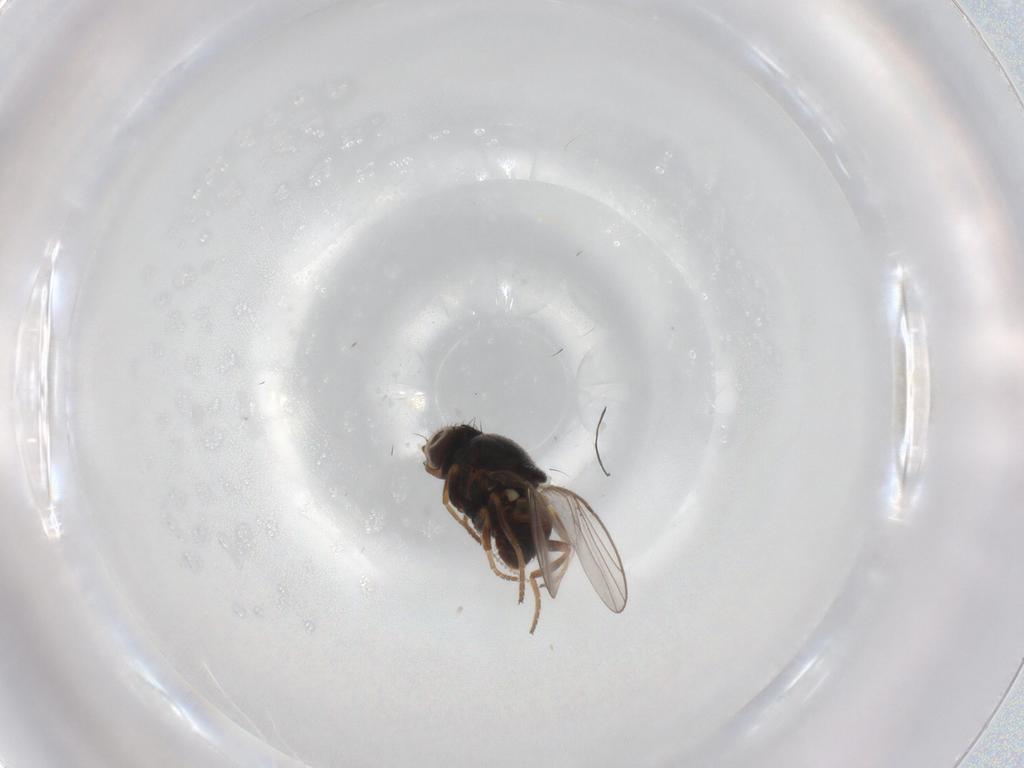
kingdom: Animalia
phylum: Arthropoda
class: Insecta
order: Diptera
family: Chloropidae
